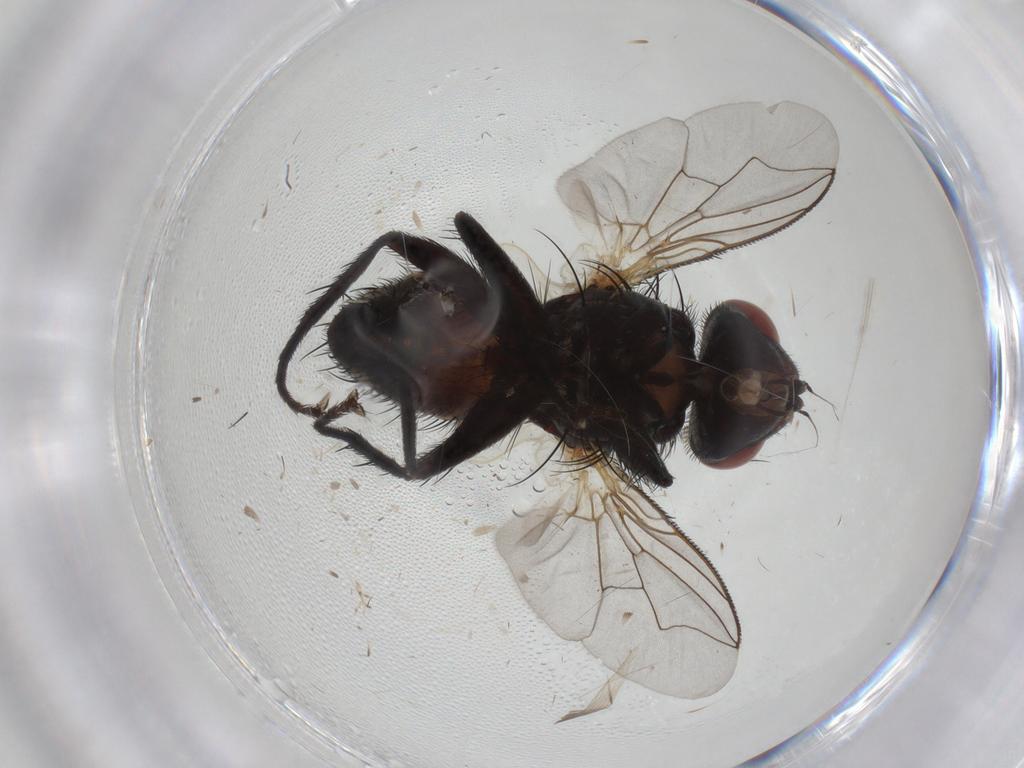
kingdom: Animalia
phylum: Arthropoda
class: Insecta
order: Diptera
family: Sarcophagidae
